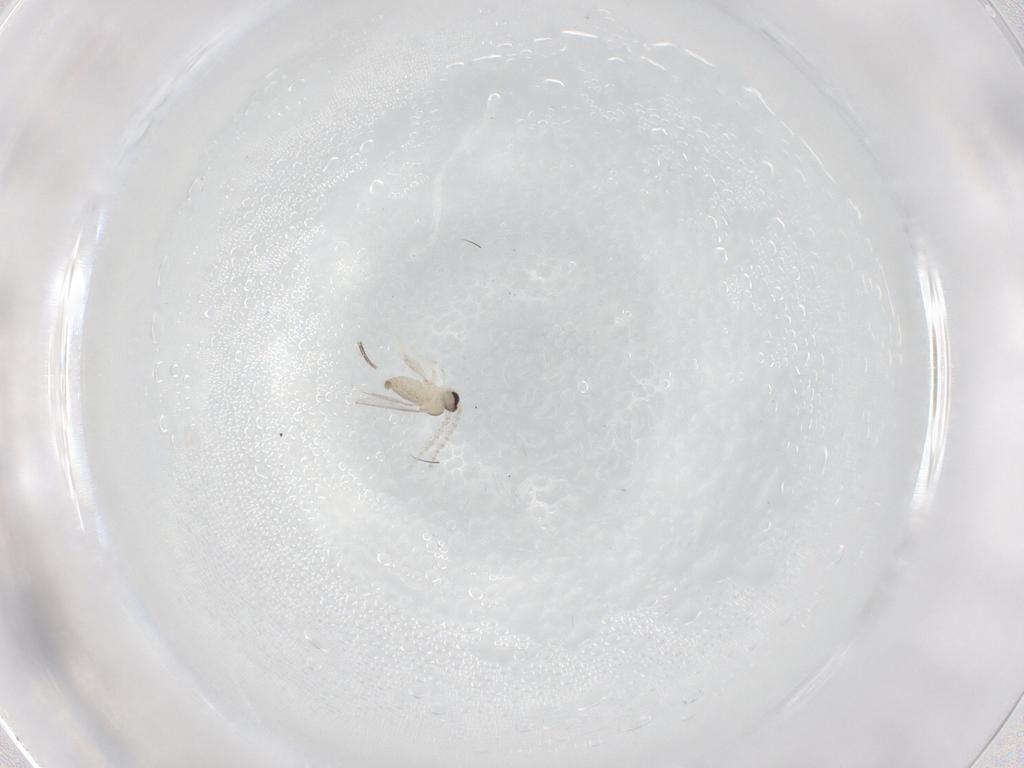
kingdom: Animalia
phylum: Arthropoda
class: Insecta
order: Diptera
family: Cecidomyiidae
